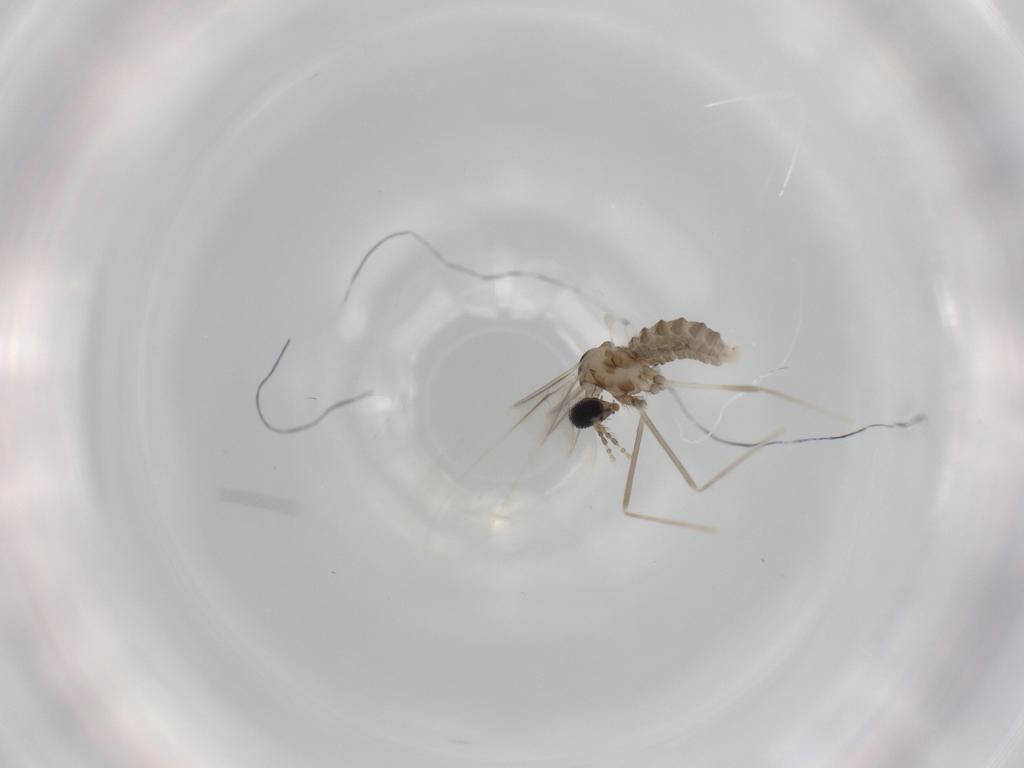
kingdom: Animalia
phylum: Arthropoda
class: Insecta
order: Diptera
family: Cecidomyiidae
